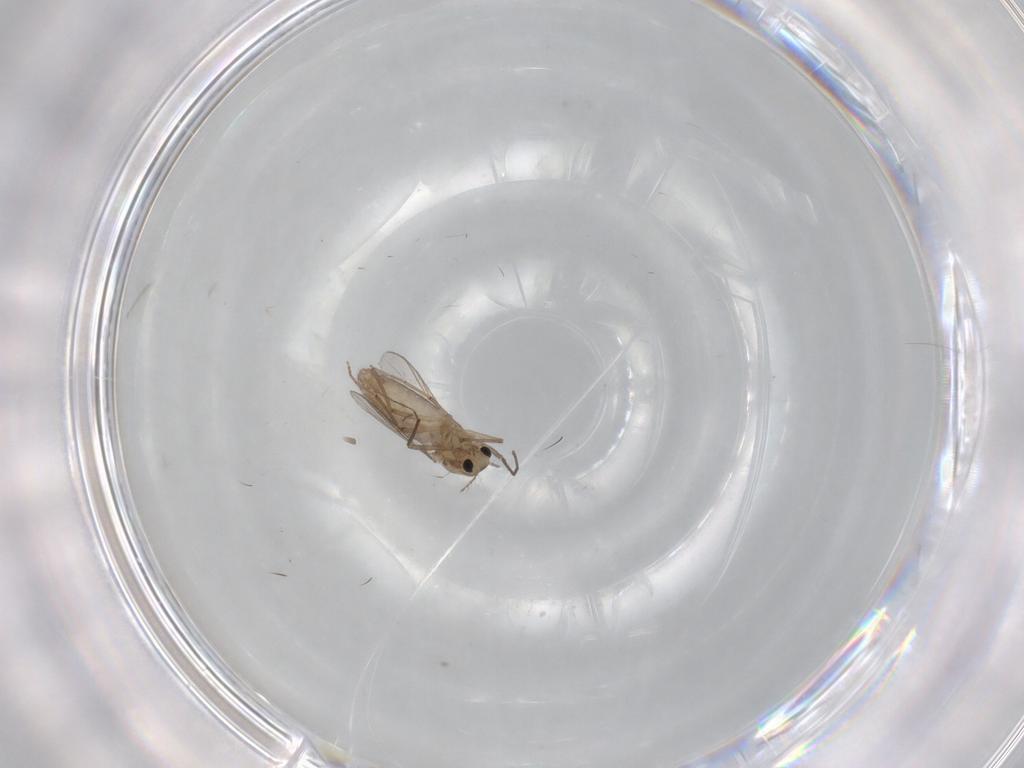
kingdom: Animalia
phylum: Arthropoda
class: Insecta
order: Diptera
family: Chironomidae
